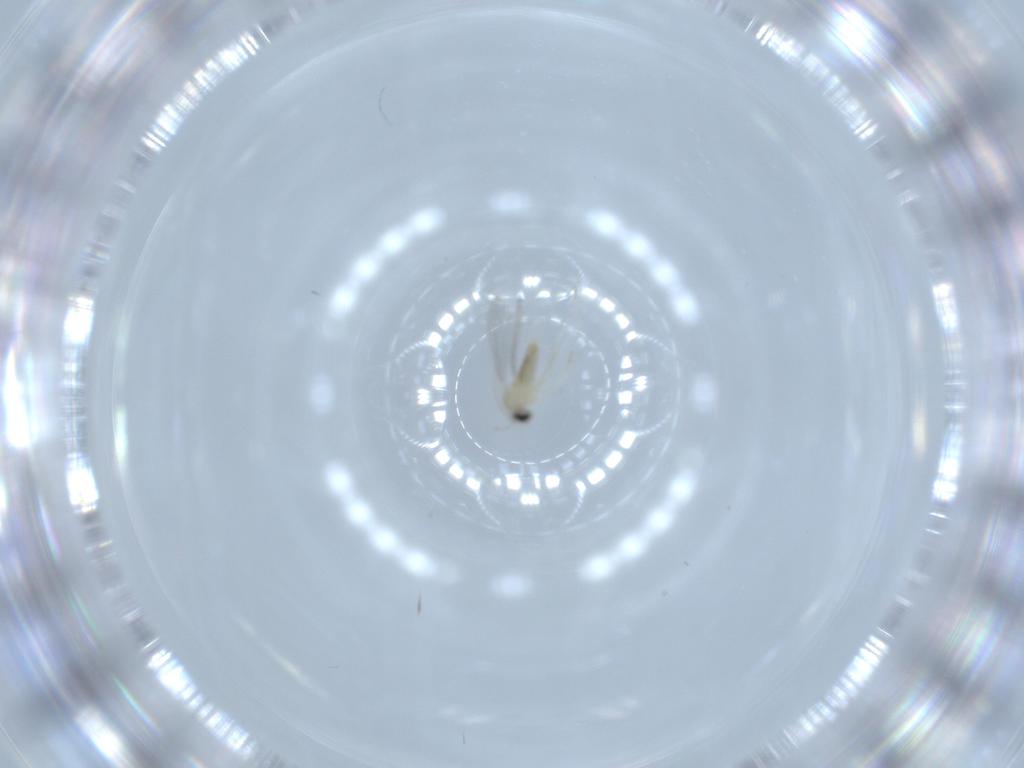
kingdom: Animalia
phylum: Arthropoda
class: Insecta
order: Diptera
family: Cecidomyiidae
